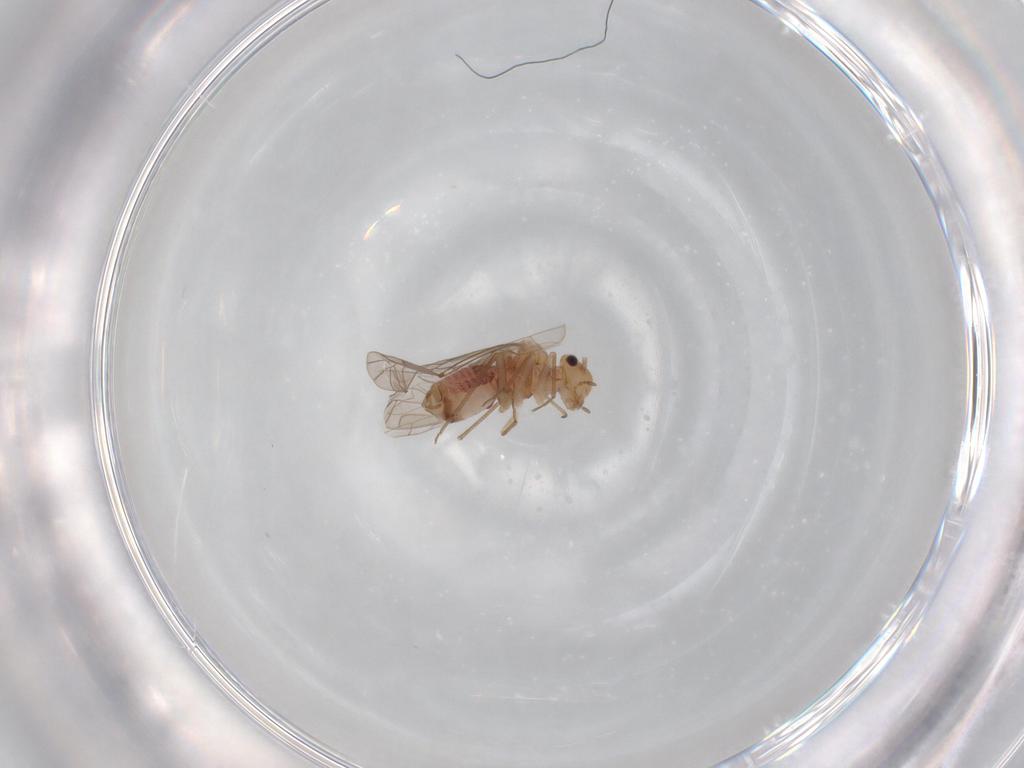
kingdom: Animalia
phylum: Arthropoda
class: Insecta
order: Psocodea
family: Lachesillidae
